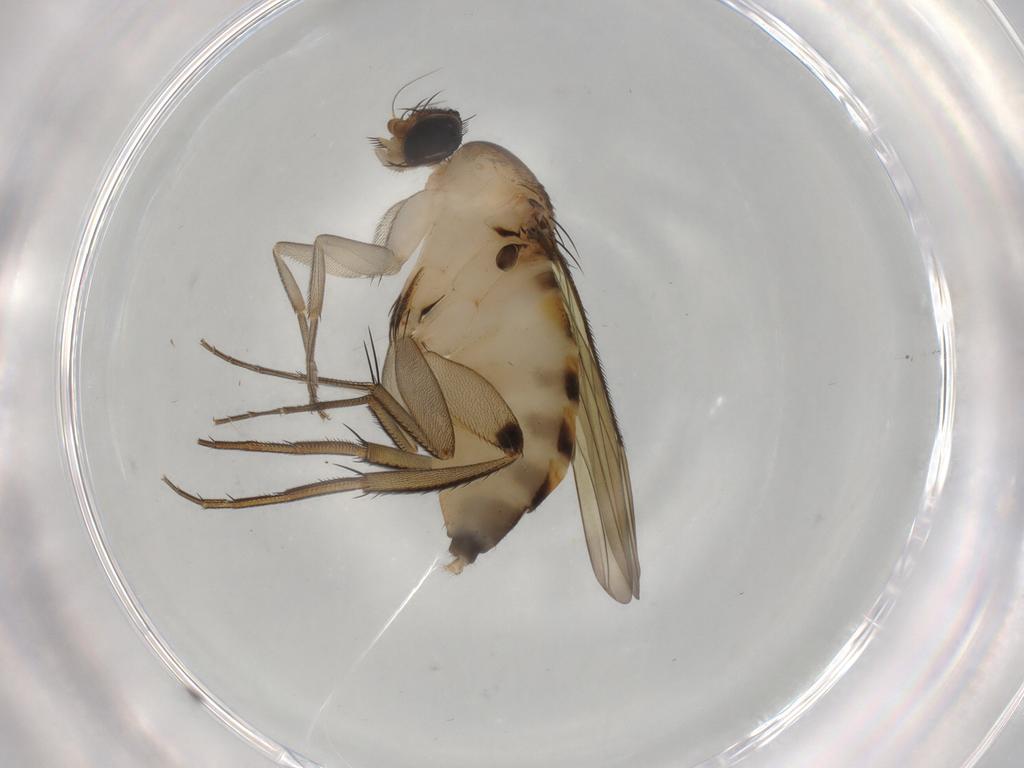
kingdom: Animalia
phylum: Arthropoda
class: Insecta
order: Diptera
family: Phoridae
